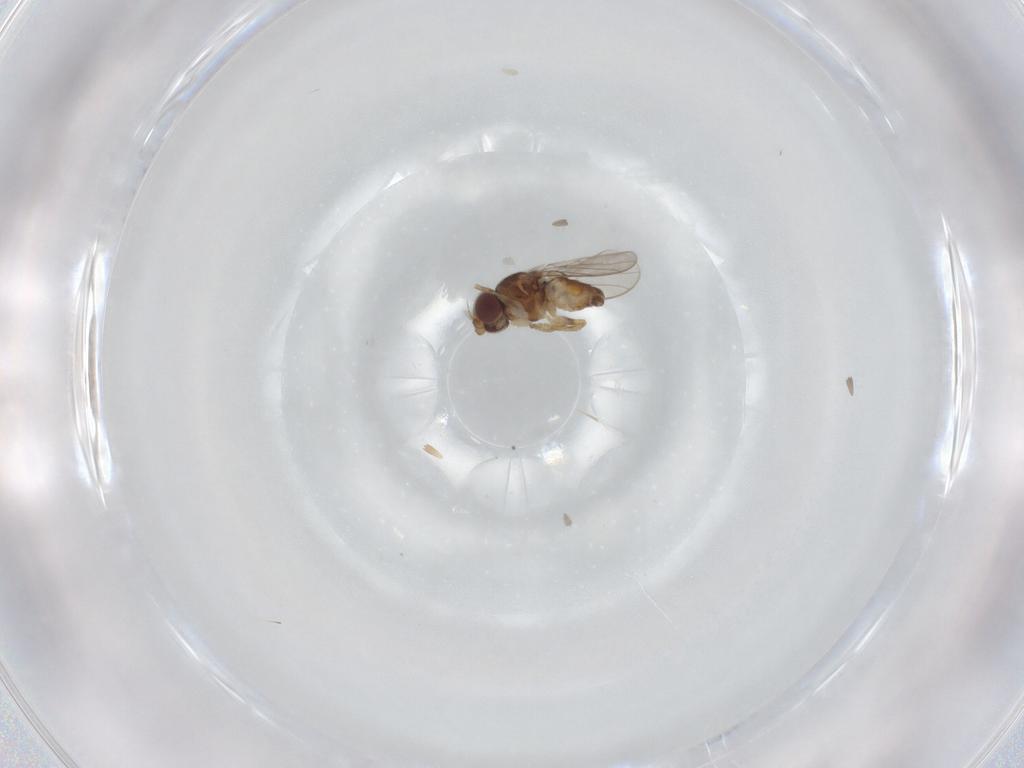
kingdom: Animalia
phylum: Arthropoda
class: Insecta
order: Diptera
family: Chloropidae
